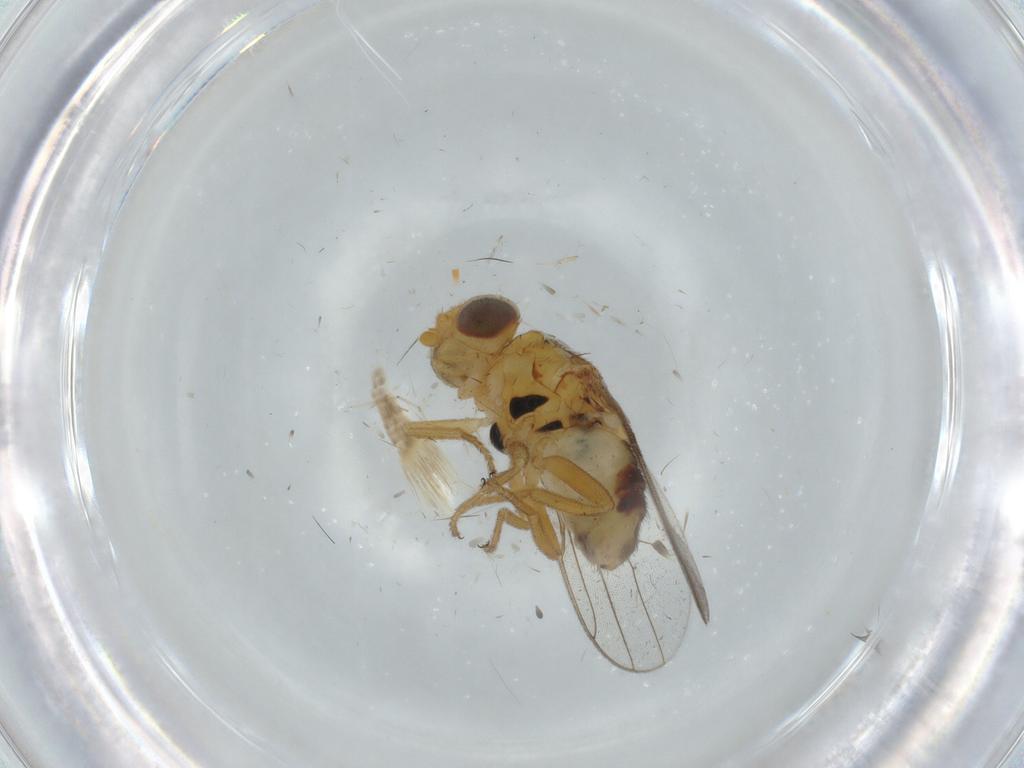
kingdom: Animalia
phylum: Arthropoda
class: Insecta
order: Diptera
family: Chloropidae
